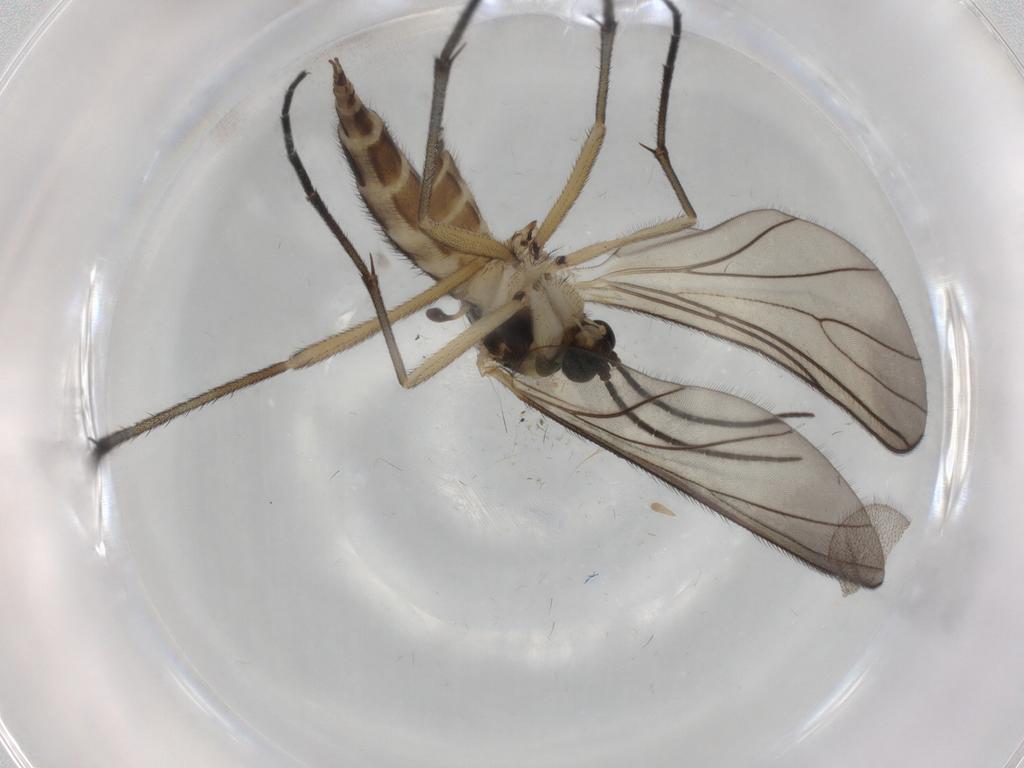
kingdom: Animalia
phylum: Arthropoda
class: Insecta
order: Diptera
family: Sciaridae
